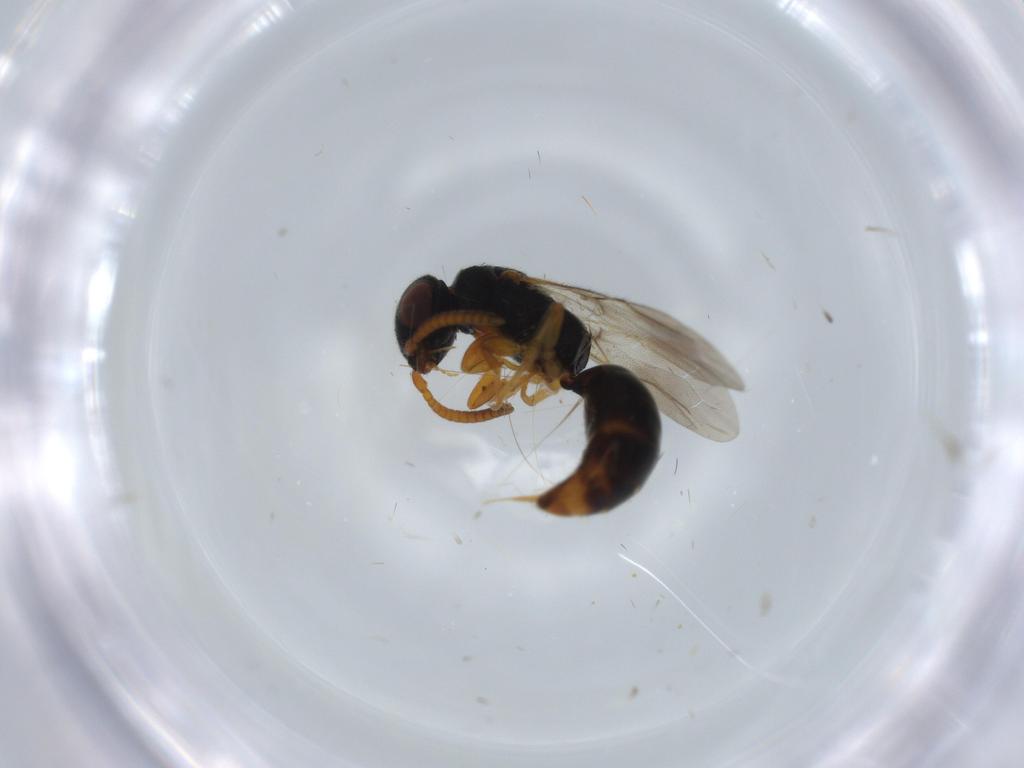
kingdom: Animalia
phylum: Arthropoda
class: Insecta
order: Hymenoptera
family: Bethylidae
